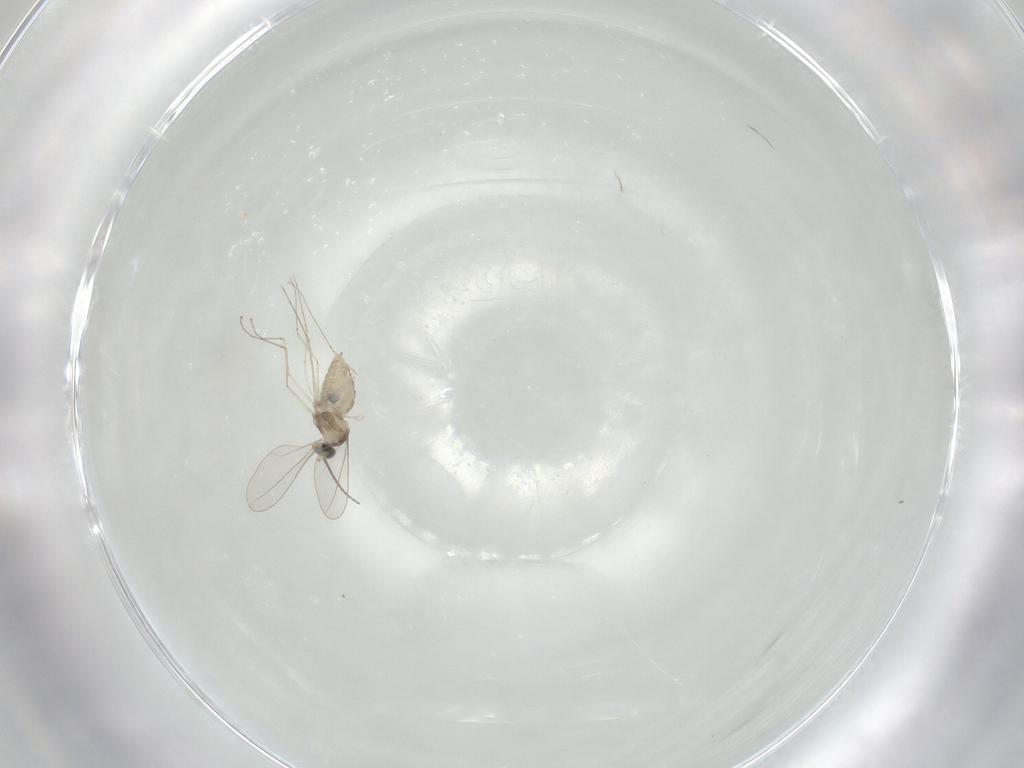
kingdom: Animalia
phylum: Arthropoda
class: Insecta
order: Diptera
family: Cecidomyiidae
